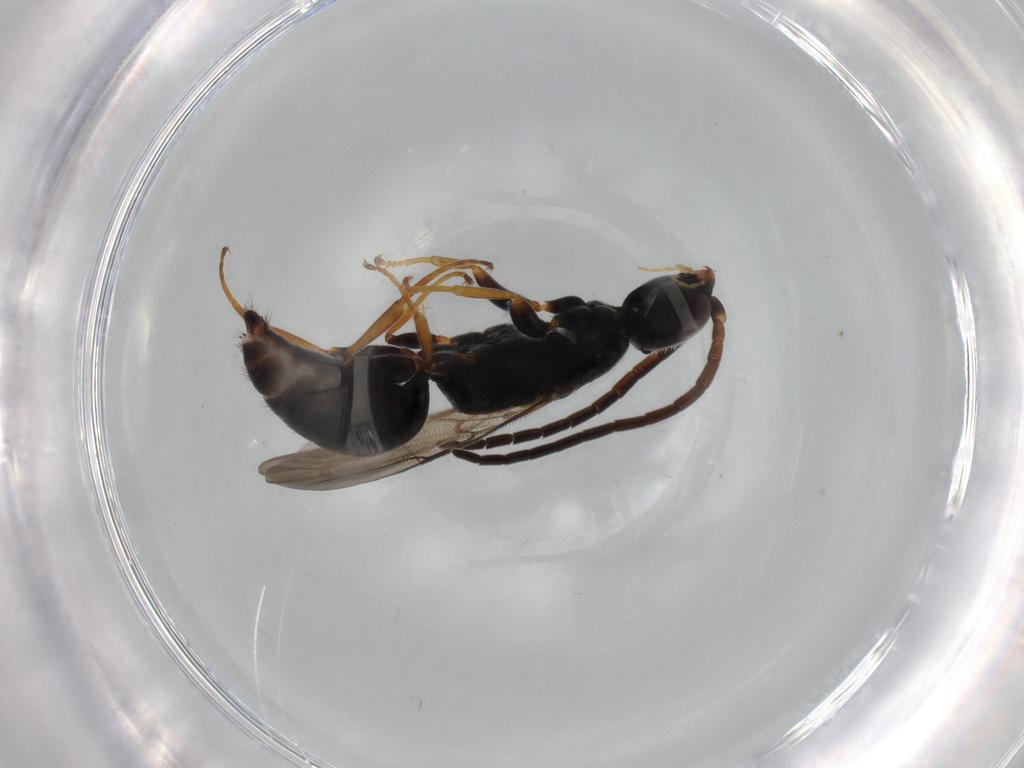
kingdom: Animalia
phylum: Arthropoda
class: Insecta
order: Hymenoptera
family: Bethylidae
